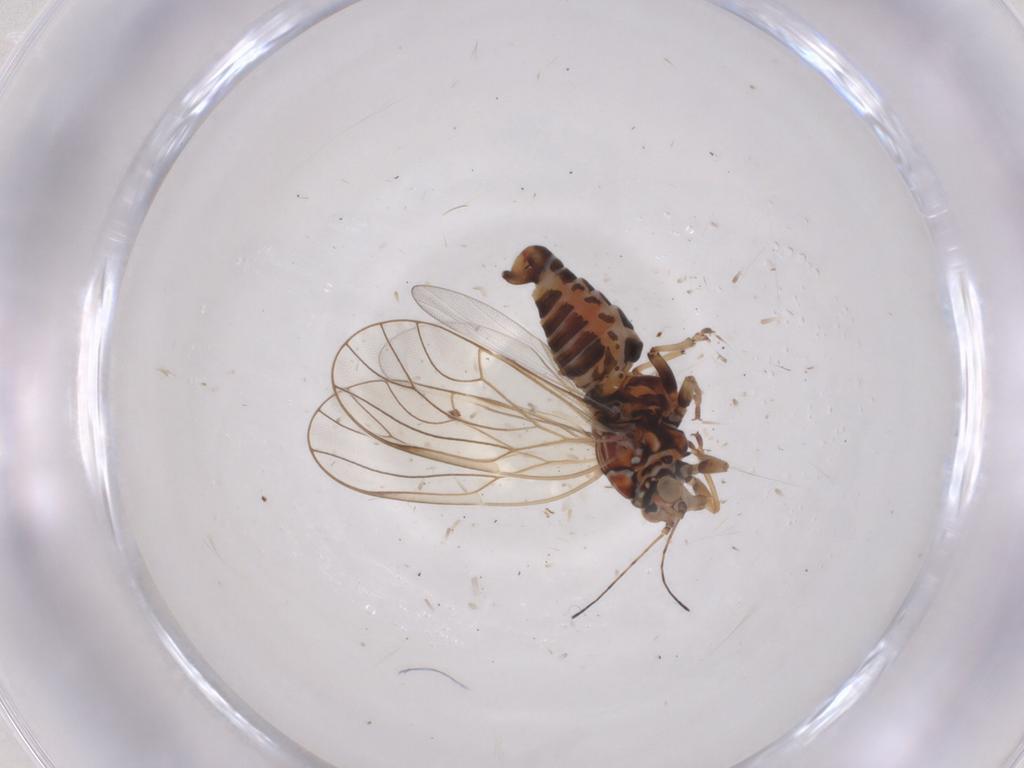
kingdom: Animalia
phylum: Arthropoda
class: Insecta
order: Hemiptera
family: Psyllidae
